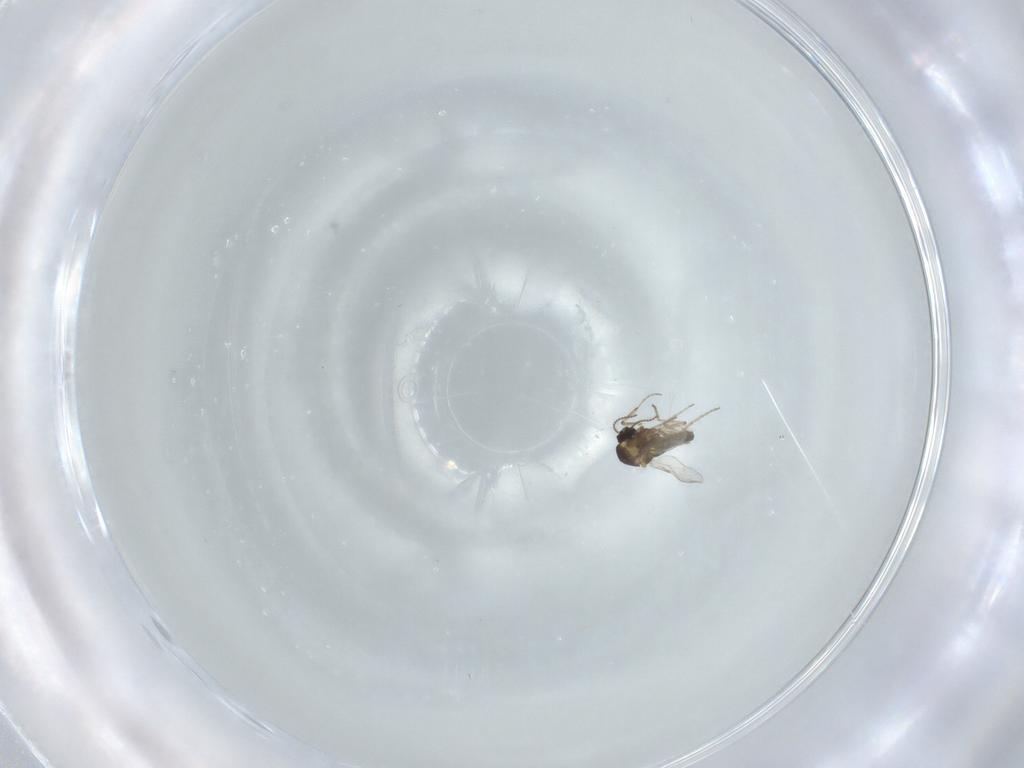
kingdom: Animalia
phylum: Arthropoda
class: Insecta
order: Diptera
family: Ceratopogonidae
